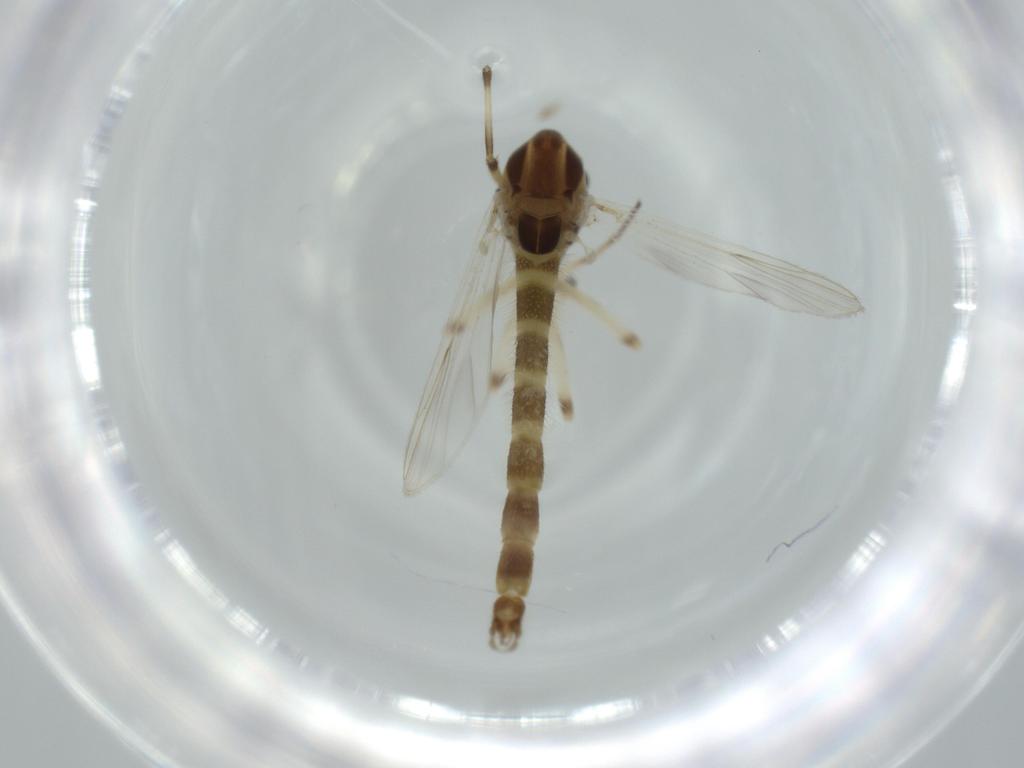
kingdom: Animalia
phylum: Arthropoda
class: Insecta
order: Diptera
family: Chironomidae
